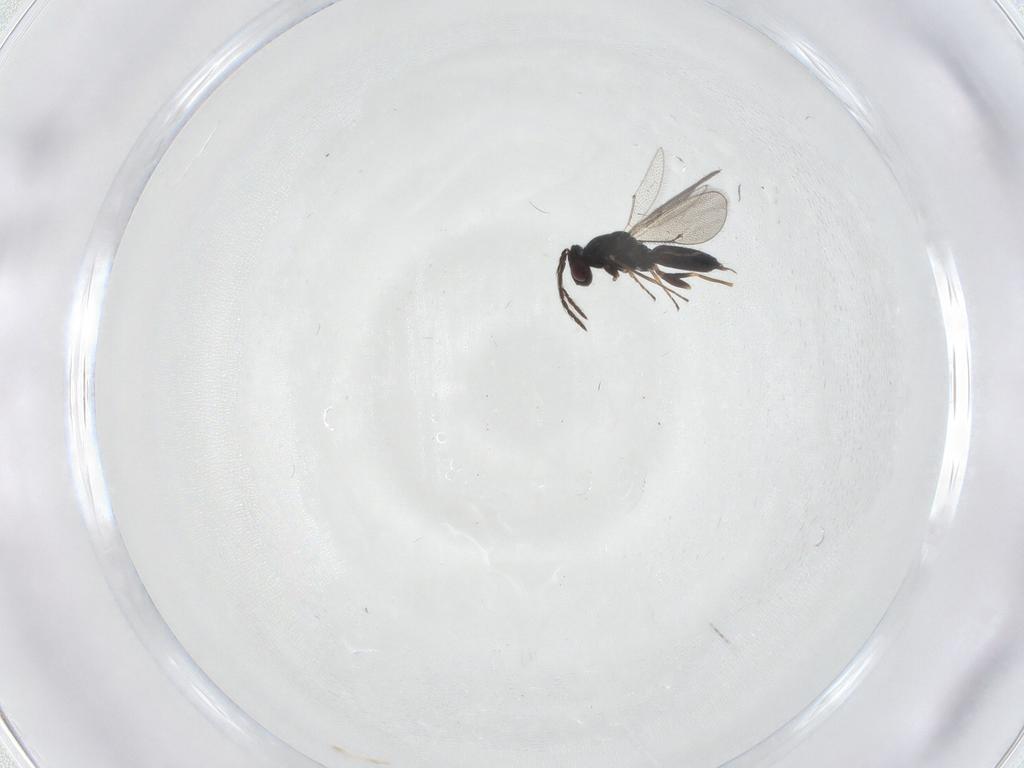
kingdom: Animalia
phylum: Arthropoda
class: Insecta
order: Hymenoptera
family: Eulophidae
